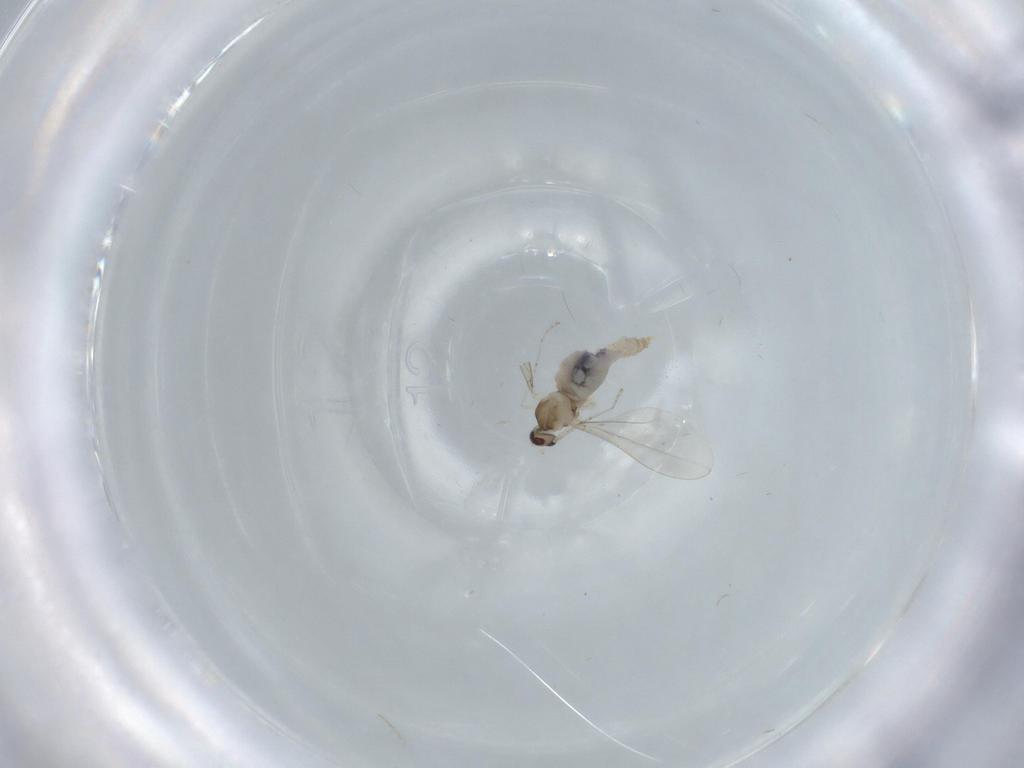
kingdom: Animalia
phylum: Arthropoda
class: Insecta
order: Diptera
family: Cecidomyiidae
